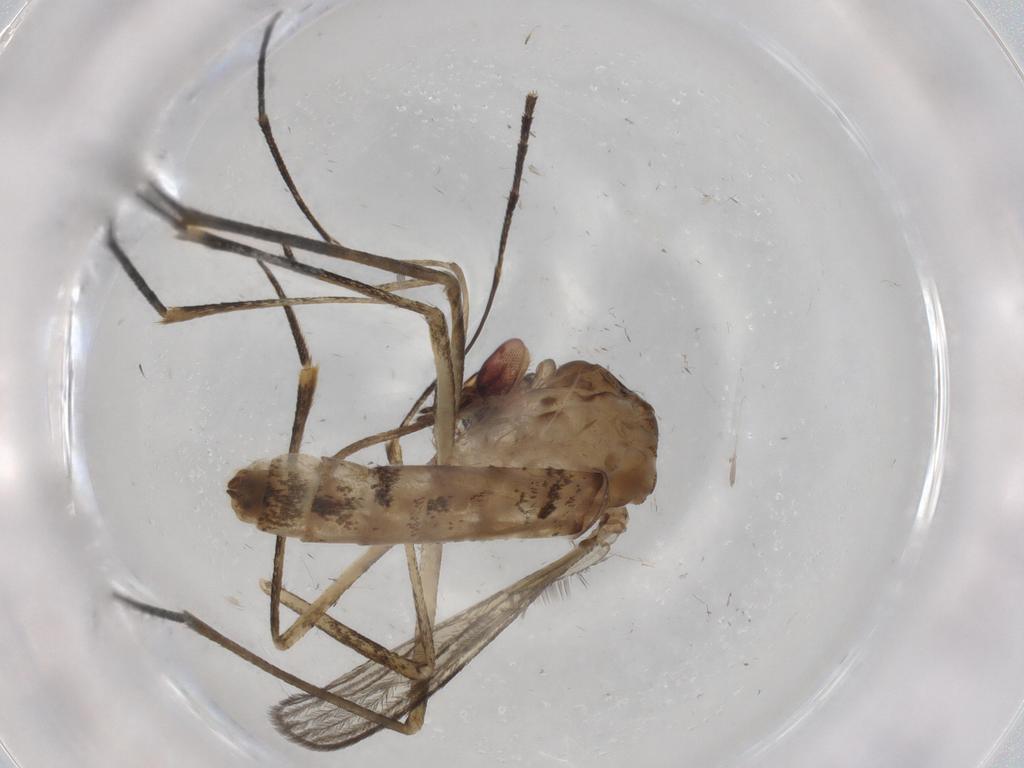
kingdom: Animalia
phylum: Arthropoda
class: Insecta
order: Diptera
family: Culicidae
